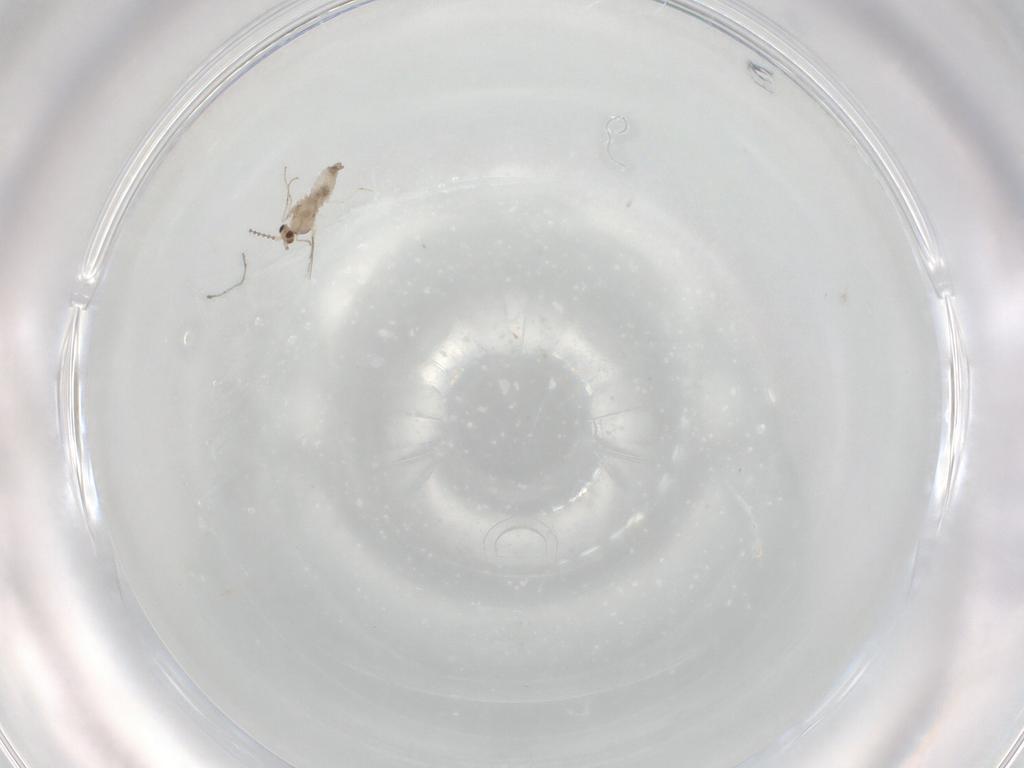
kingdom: Animalia
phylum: Arthropoda
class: Insecta
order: Diptera
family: Cecidomyiidae
